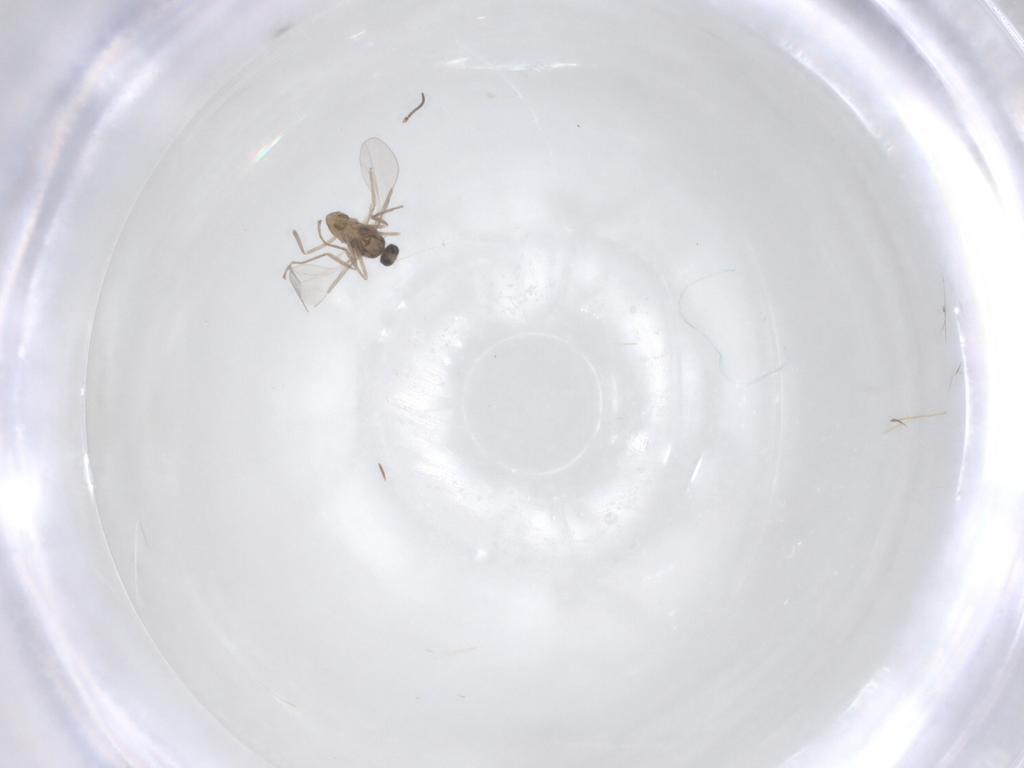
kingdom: Animalia
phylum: Arthropoda
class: Insecta
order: Diptera
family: Cecidomyiidae
